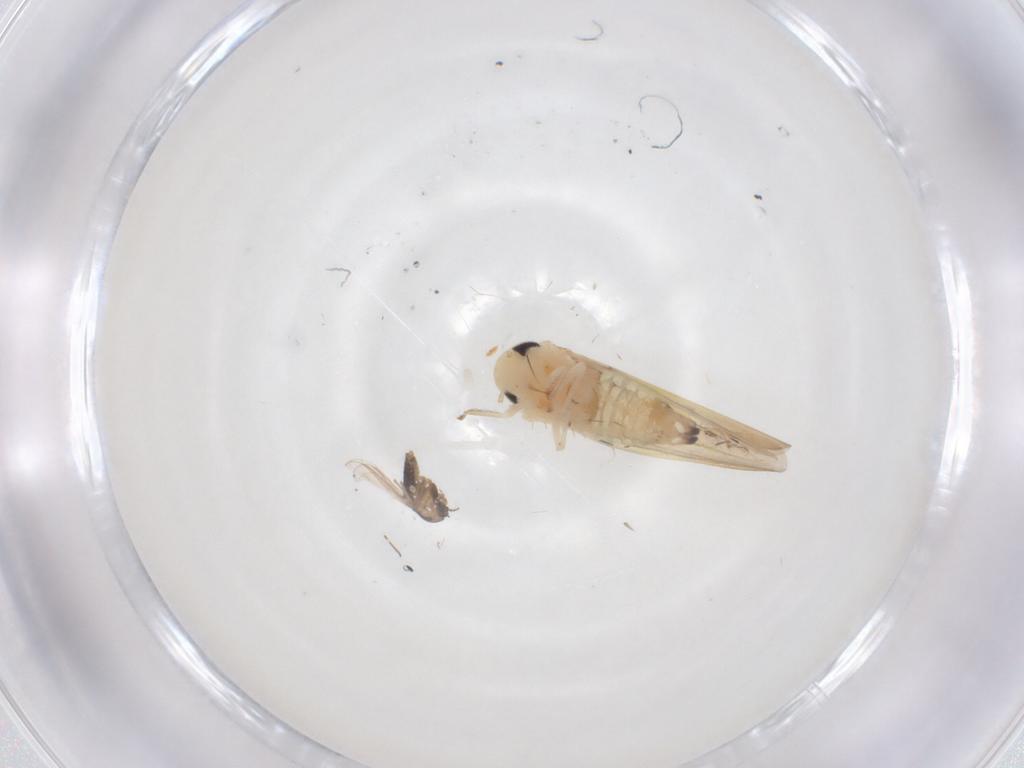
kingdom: Animalia
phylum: Arthropoda
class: Insecta
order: Hemiptera
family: Cicadellidae
